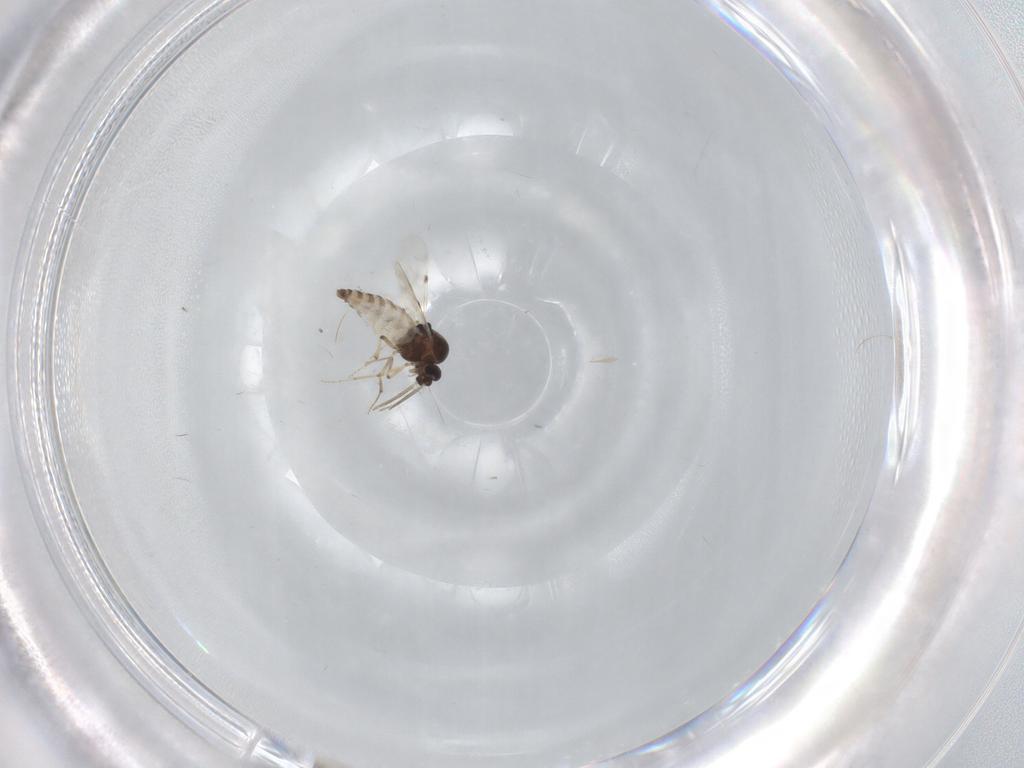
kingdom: Animalia
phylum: Arthropoda
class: Insecta
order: Diptera
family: Psychodidae
